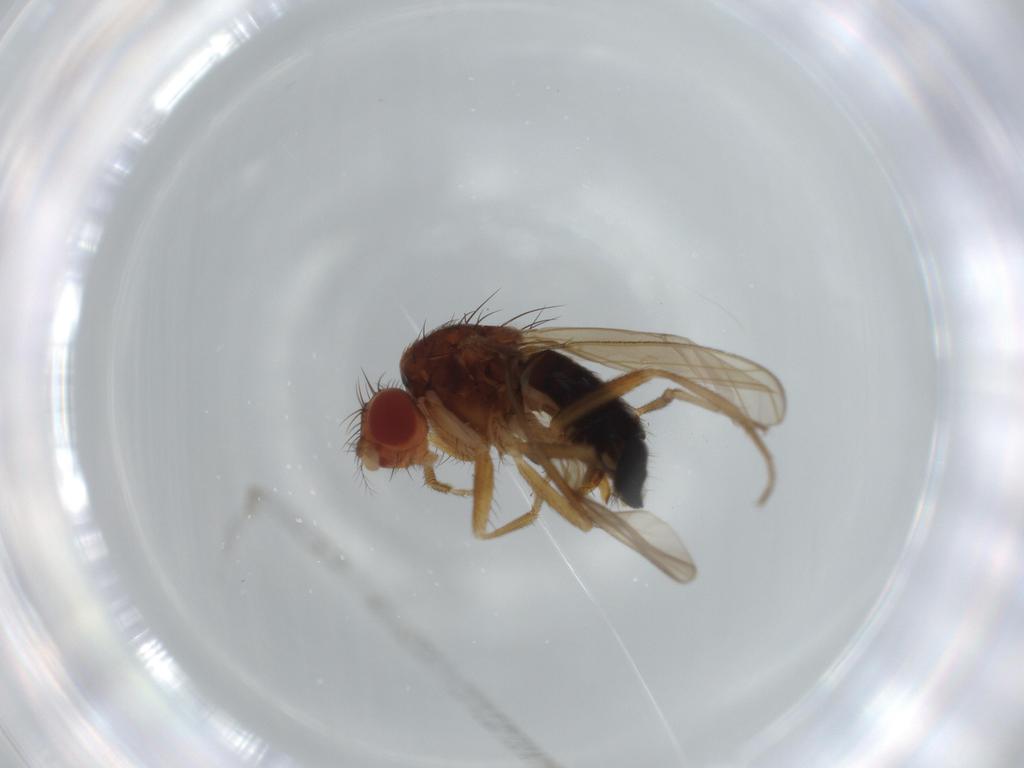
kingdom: Animalia
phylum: Arthropoda
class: Insecta
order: Diptera
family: Drosophilidae
